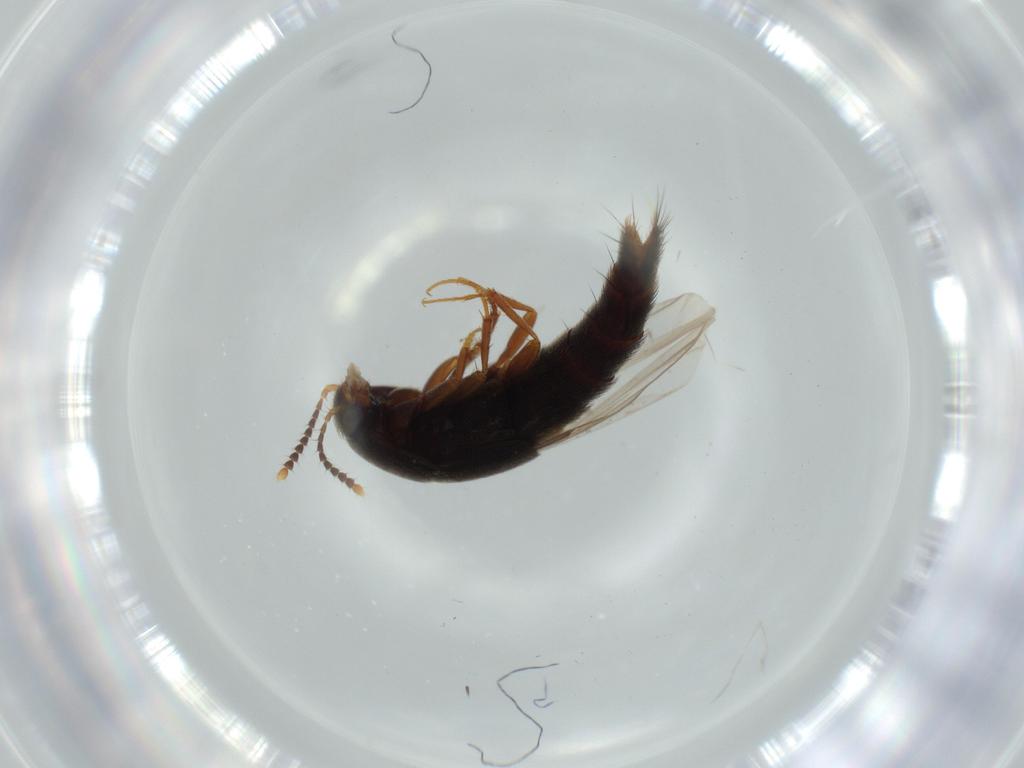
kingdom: Animalia
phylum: Arthropoda
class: Insecta
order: Coleoptera
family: Staphylinidae
